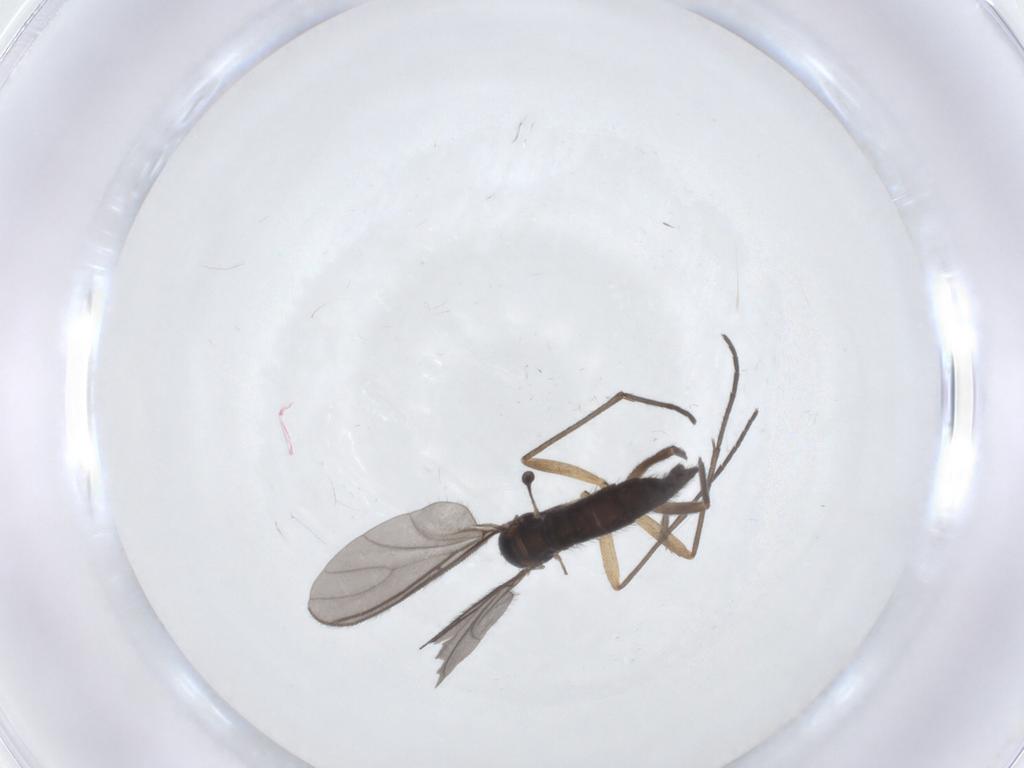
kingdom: Animalia
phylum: Arthropoda
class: Insecta
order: Diptera
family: Sciaridae
